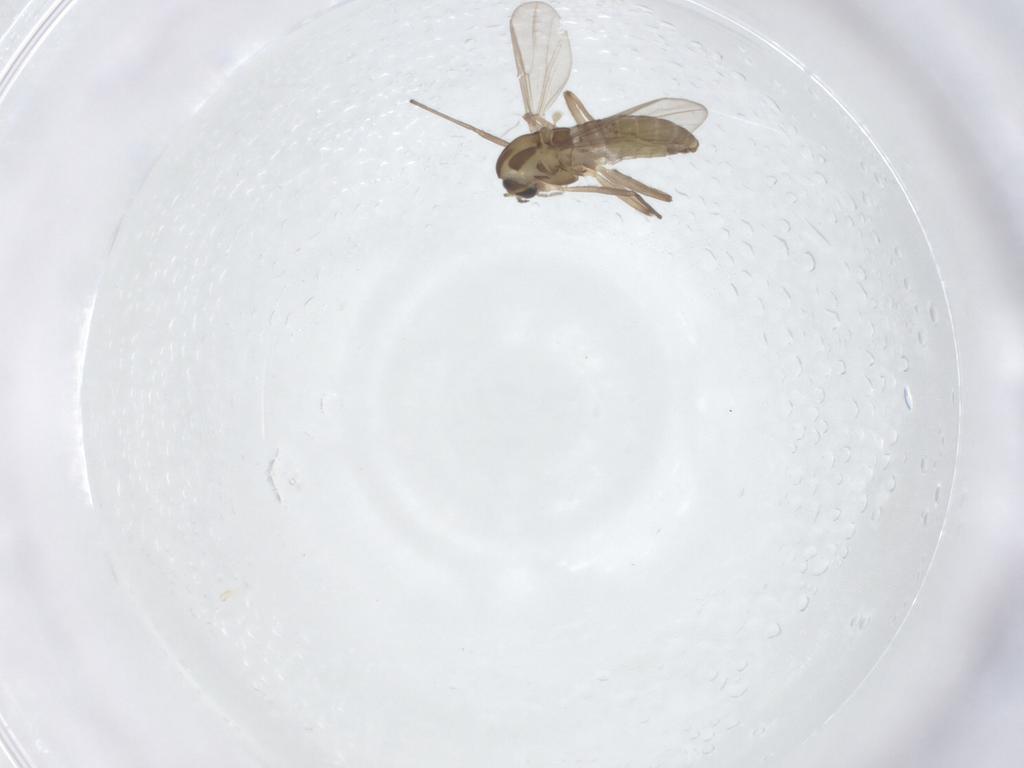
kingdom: Animalia
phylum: Arthropoda
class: Insecta
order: Diptera
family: Chironomidae
